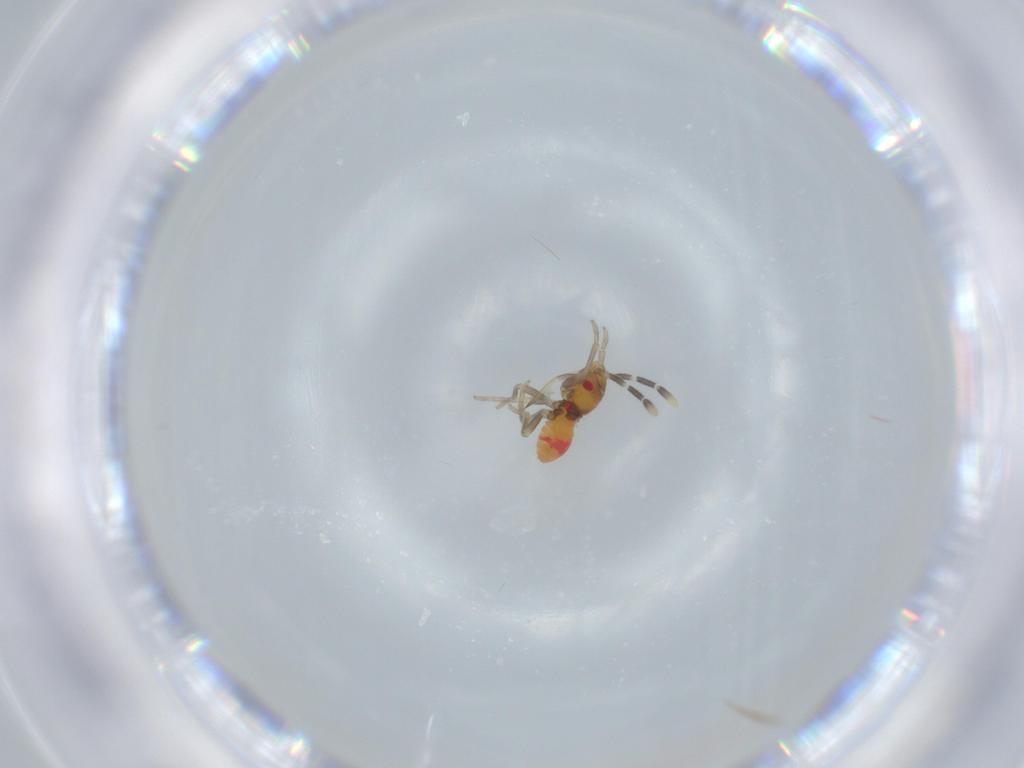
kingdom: Animalia
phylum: Arthropoda
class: Insecta
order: Hemiptera
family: Rhyparochromidae
